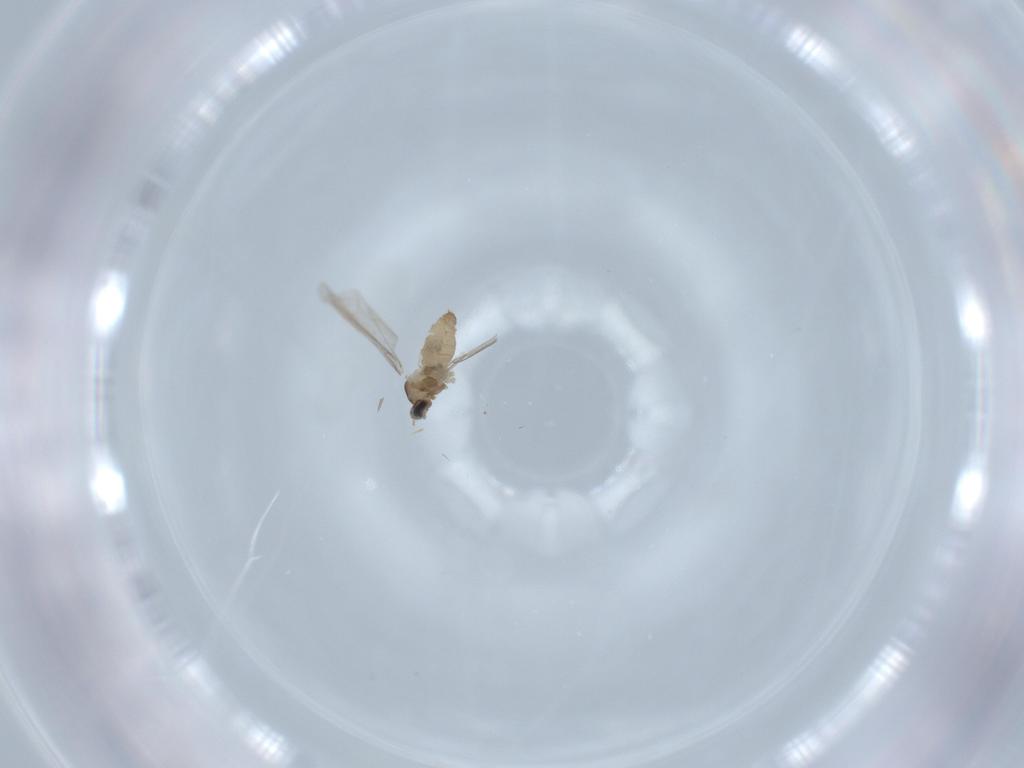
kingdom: Animalia
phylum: Arthropoda
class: Insecta
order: Diptera
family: Cecidomyiidae
